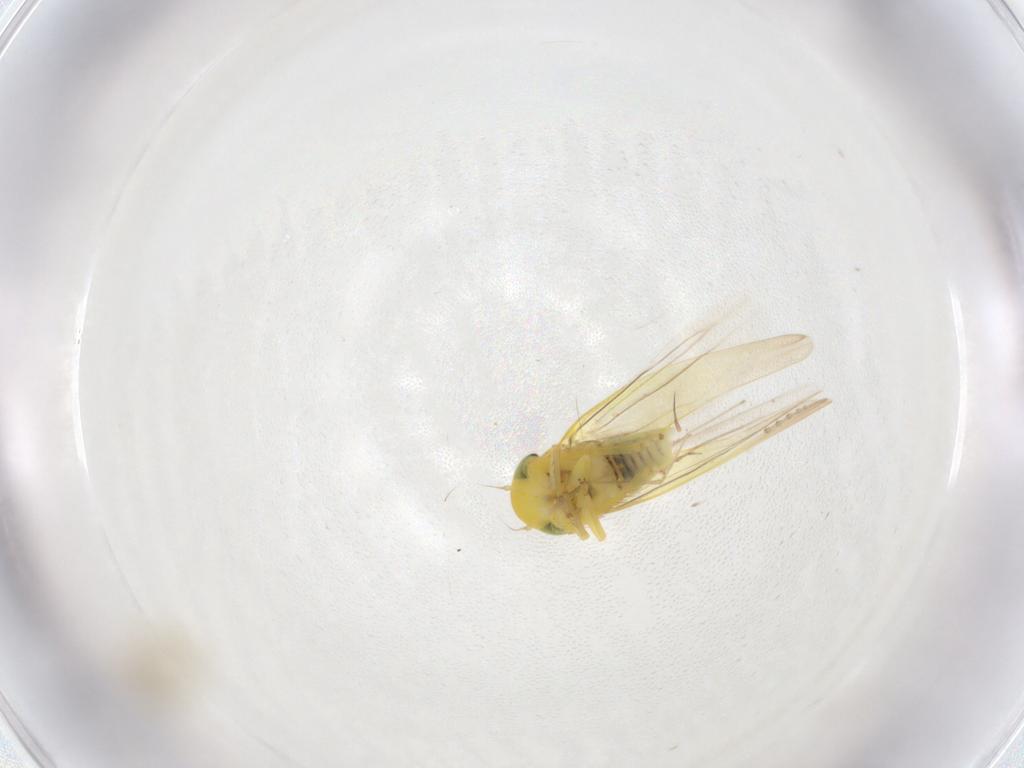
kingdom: Animalia
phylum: Arthropoda
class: Insecta
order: Hemiptera
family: Cicadellidae
